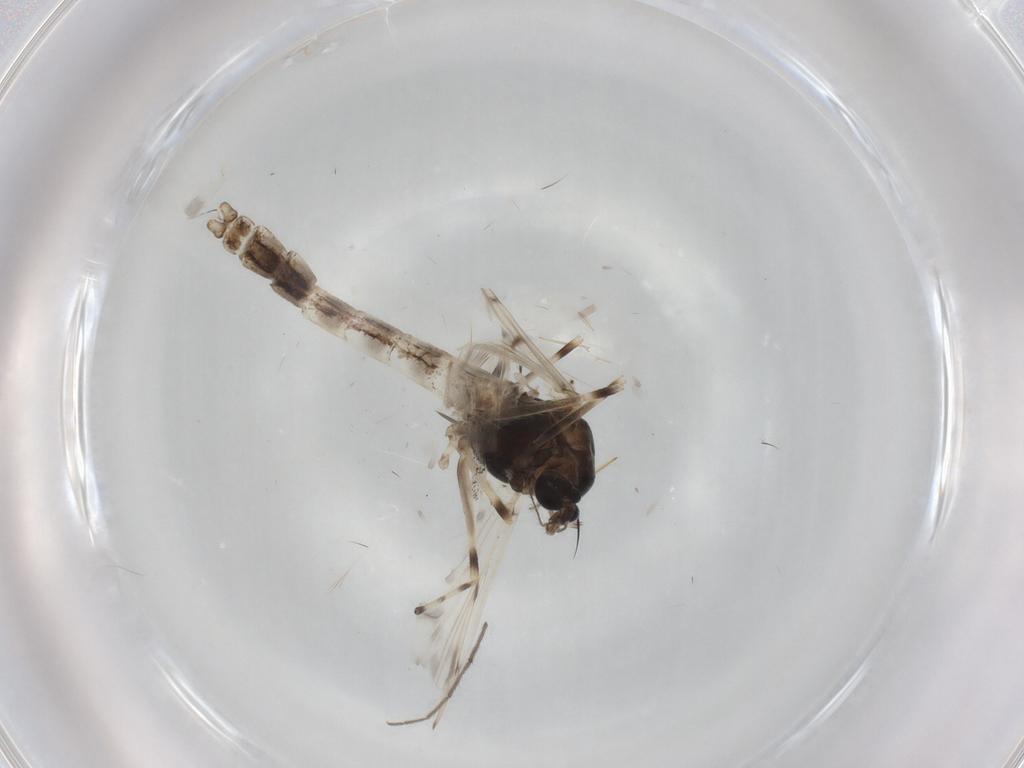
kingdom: Animalia
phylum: Arthropoda
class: Insecta
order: Diptera
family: Chironomidae
